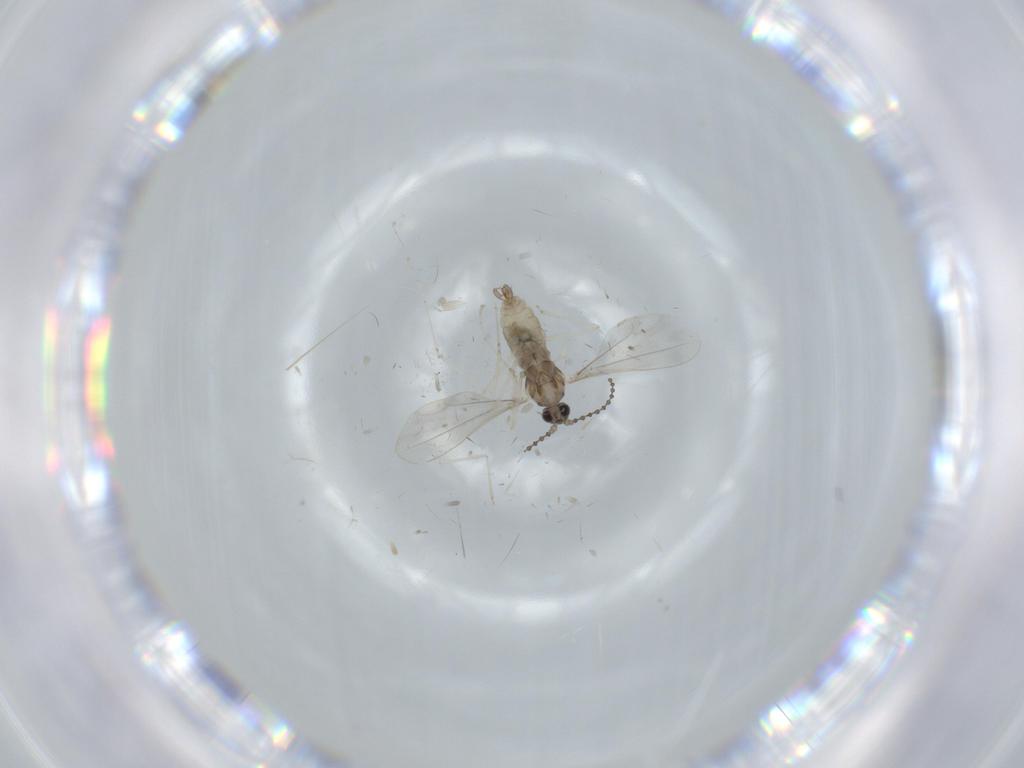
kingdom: Animalia
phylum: Arthropoda
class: Insecta
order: Diptera
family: Cecidomyiidae
